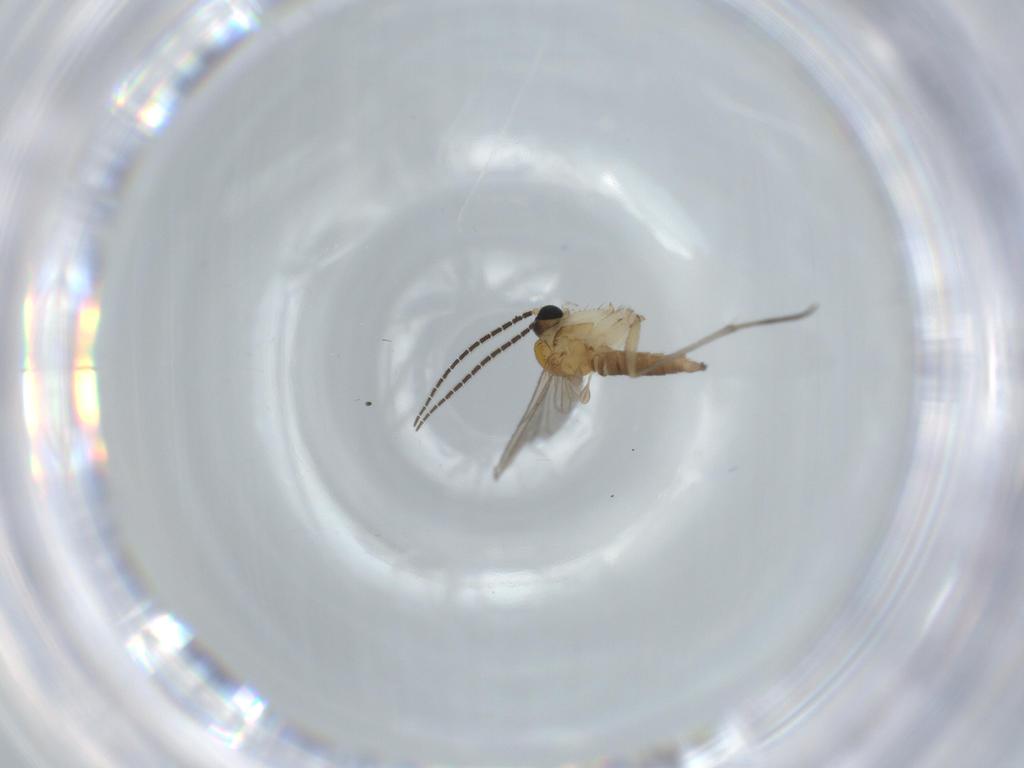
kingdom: Animalia
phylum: Arthropoda
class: Insecta
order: Diptera
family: Sciaridae
